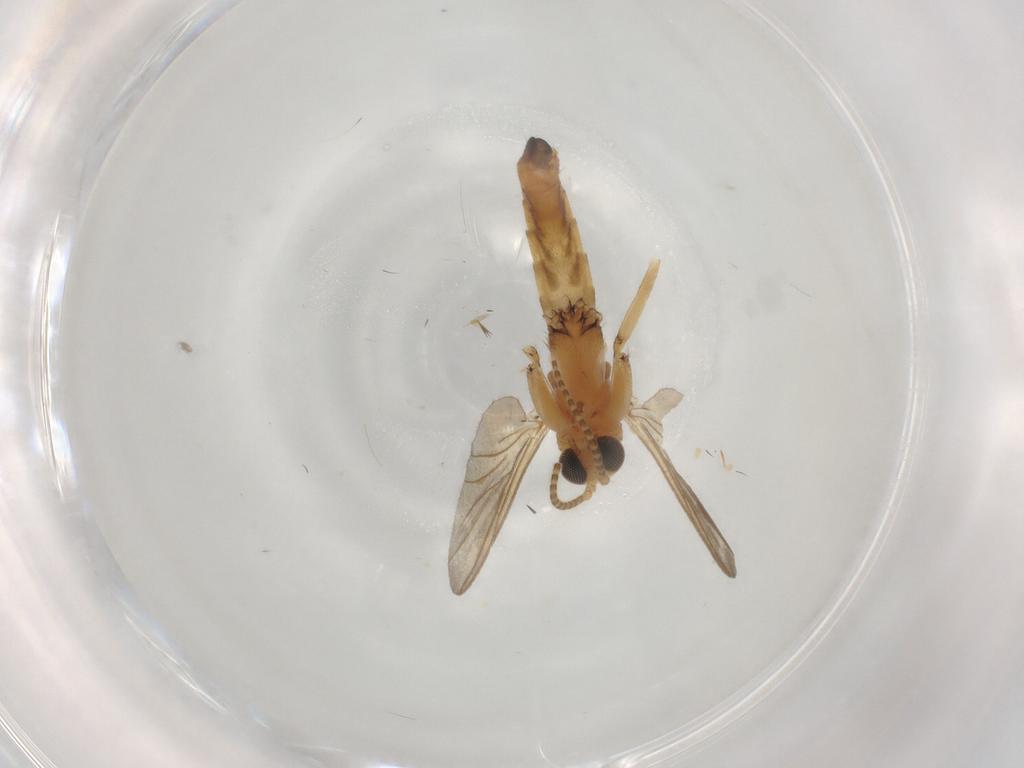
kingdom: Animalia
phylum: Arthropoda
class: Insecta
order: Diptera
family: Mycetophilidae
